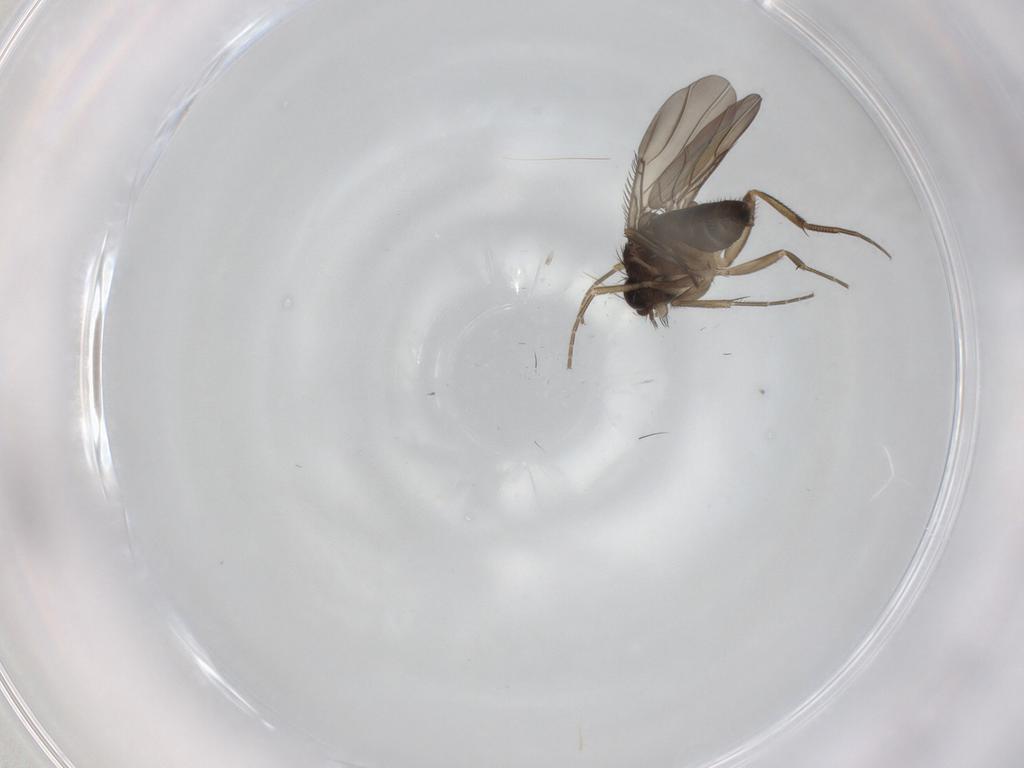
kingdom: Animalia
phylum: Arthropoda
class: Insecta
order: Diptera
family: Phoridae
